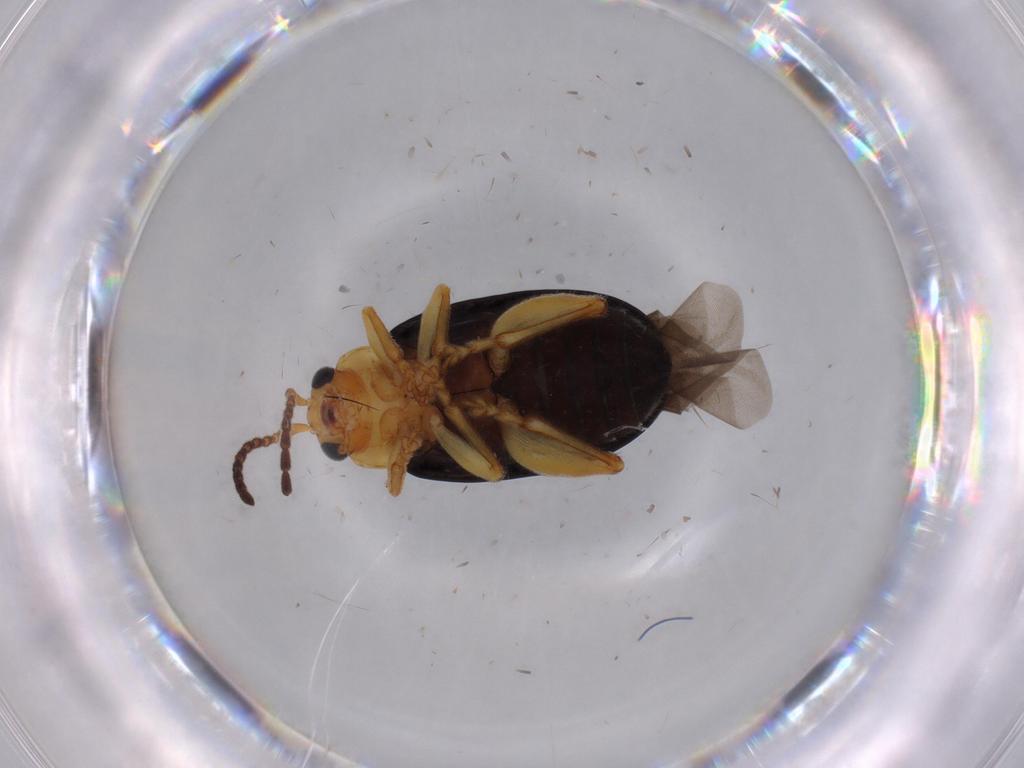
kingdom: Animalia
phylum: Arthropoda
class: Insecta
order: Coleoptera
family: Chrysomelidae
